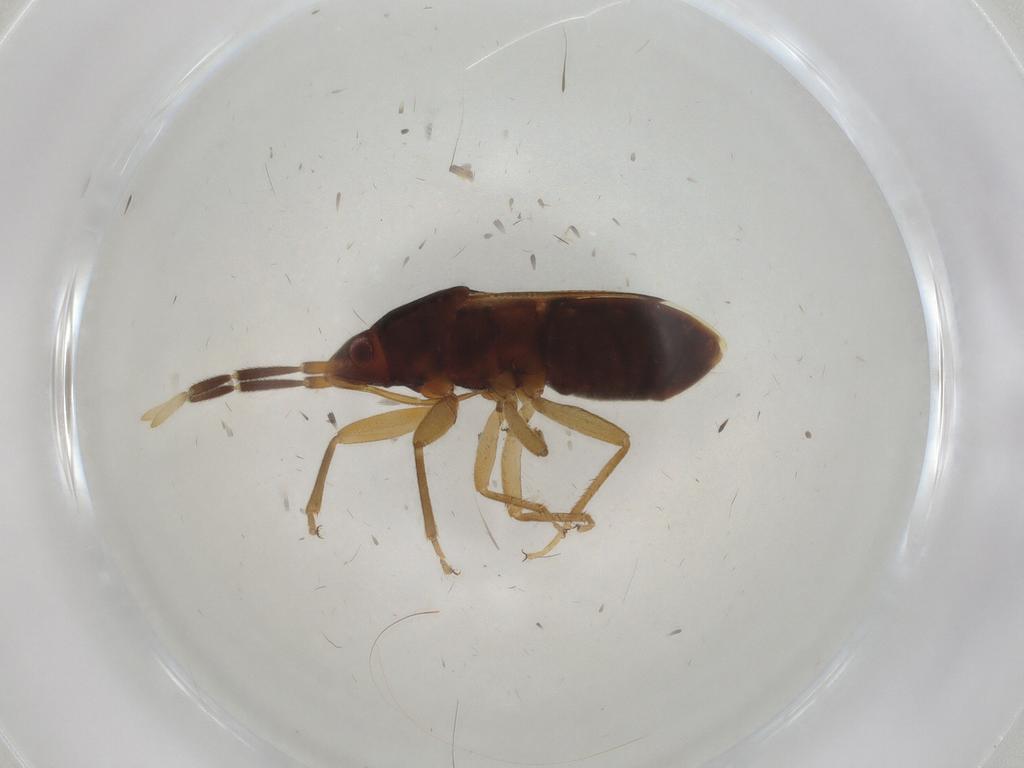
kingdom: Animalia
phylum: Arthropoda
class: Insecta
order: Hemiptera
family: Rhyparochromidae
